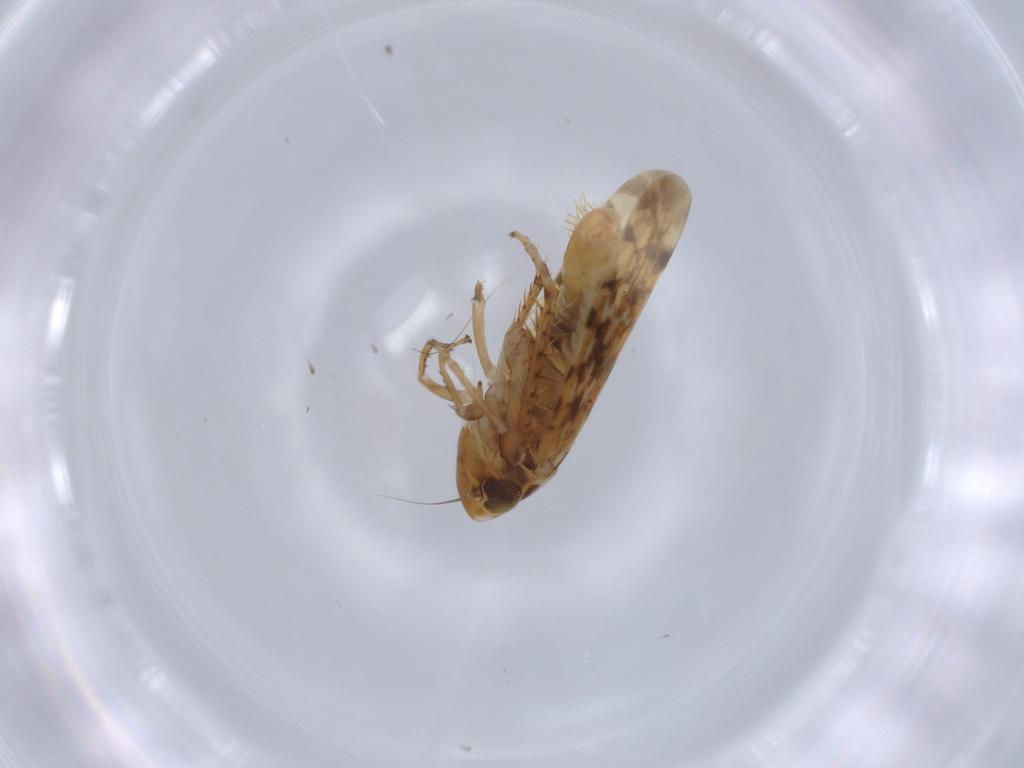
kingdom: Animalia
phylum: Arthropoda
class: Insecta
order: Hemiptera
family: Cicadellidae
